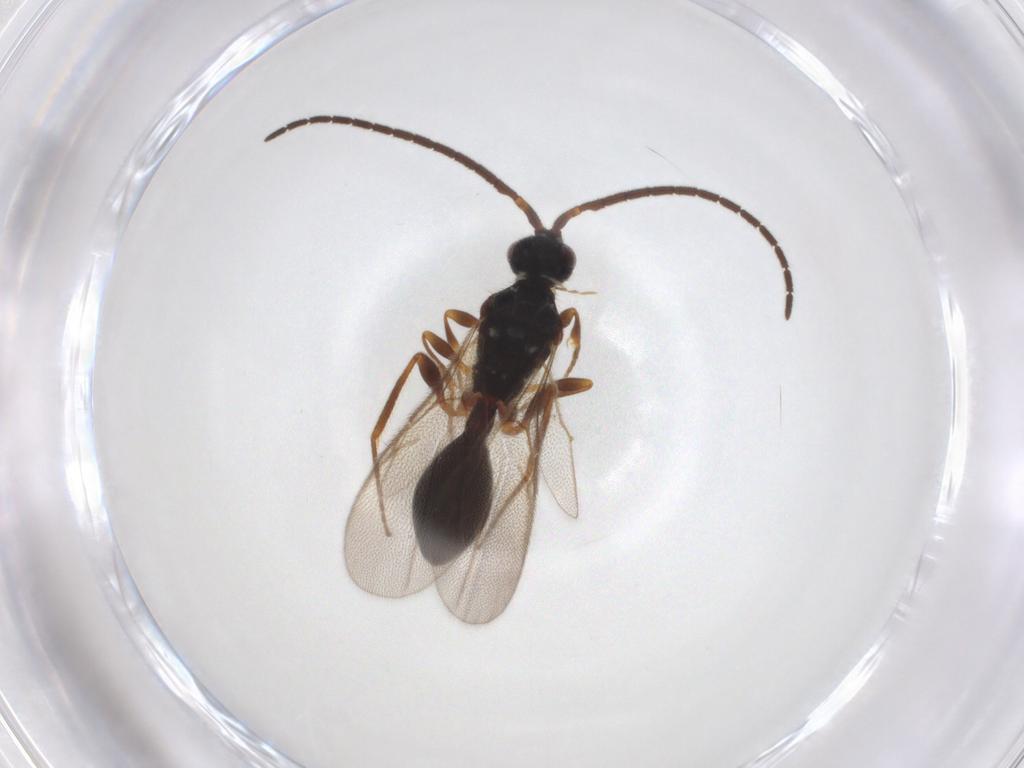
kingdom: Animalia
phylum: Arthropoda
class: Insecta
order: Hymenoptera
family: Diapriidae
